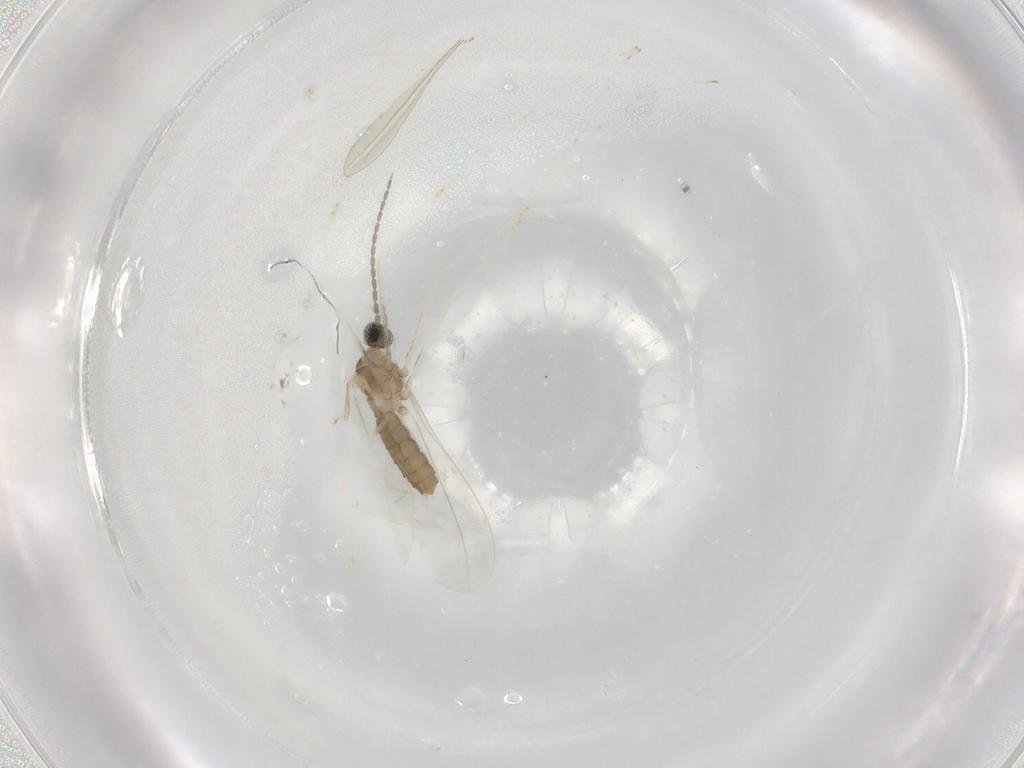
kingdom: Animalia
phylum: Arthropoda
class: Insecta
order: Diptera
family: Cecidomyiidae
